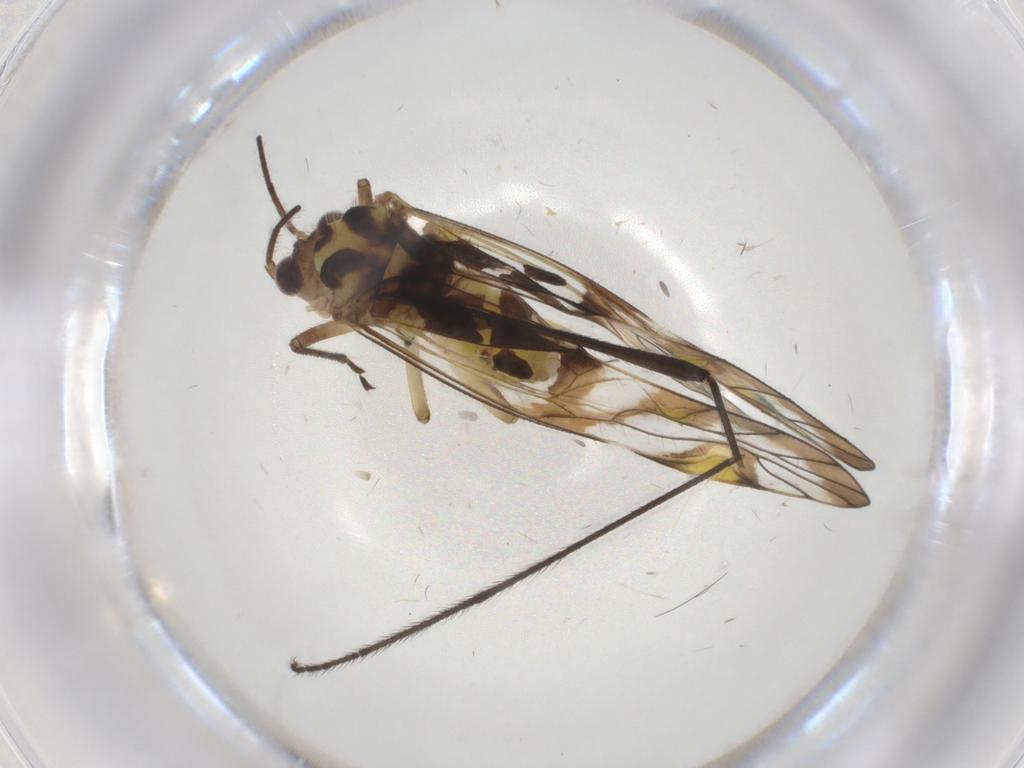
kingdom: Animalia
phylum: Arthropoda
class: Insecta
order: Psocodea
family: Amphipsocidae
